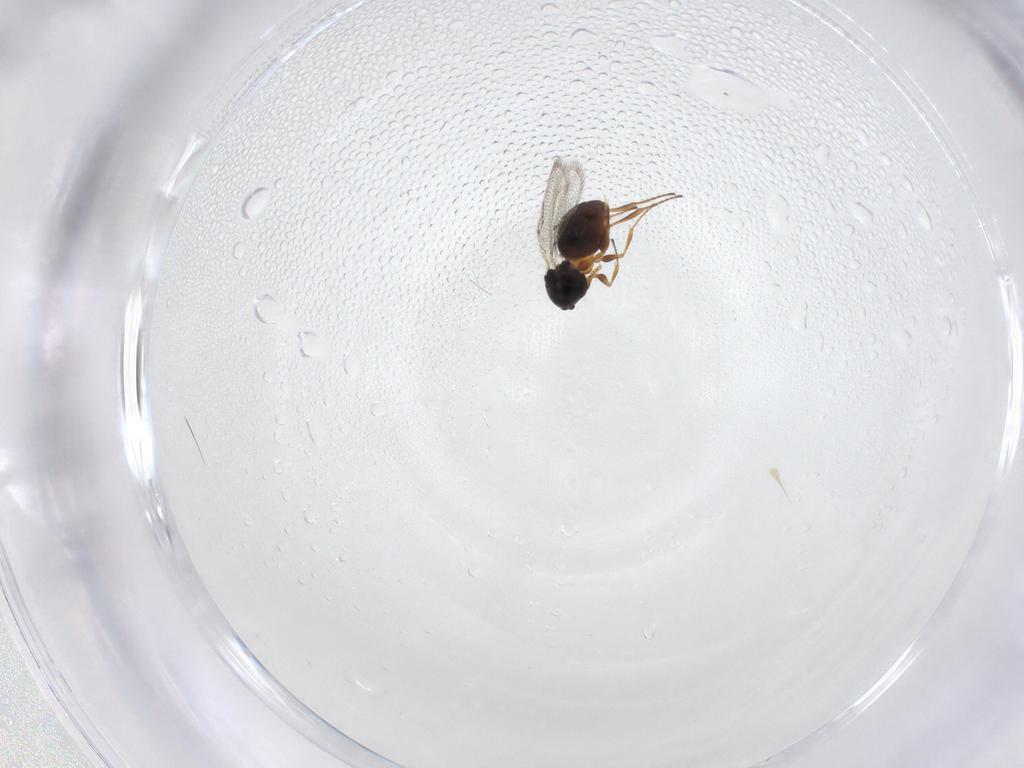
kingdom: Animalia
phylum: Arthropoda
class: Insecta
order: Hymenoptera
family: Figitidae
